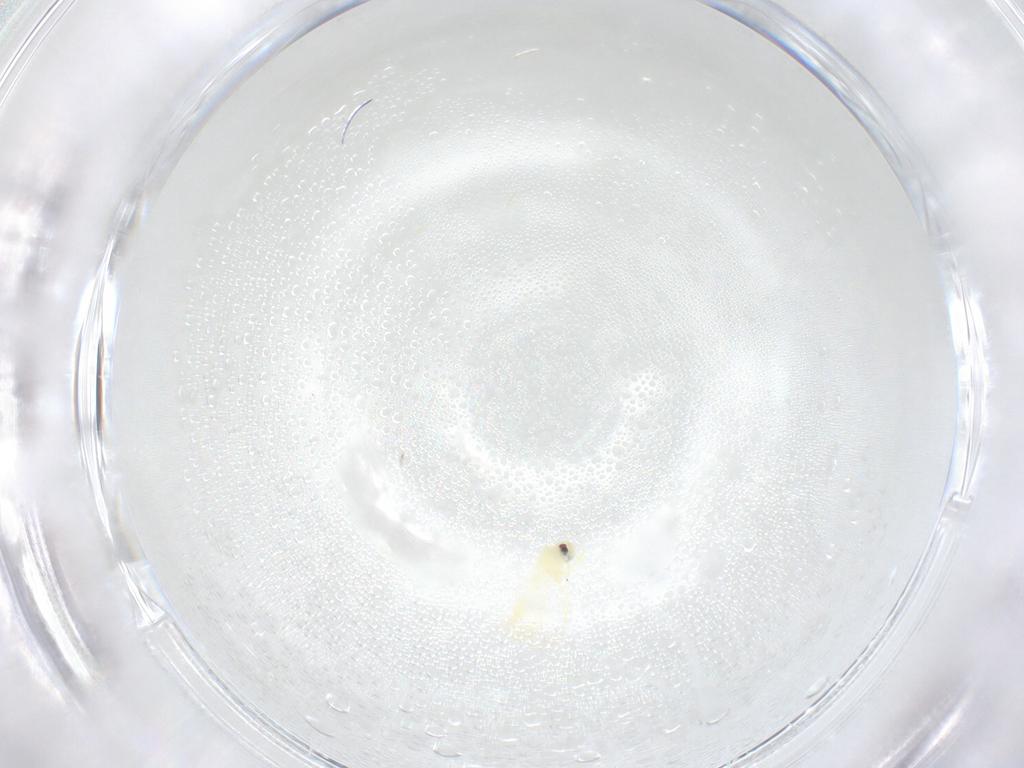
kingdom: Animalia
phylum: Arthropoda
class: Insecta
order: Hemiptera
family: Aleyrodidae
